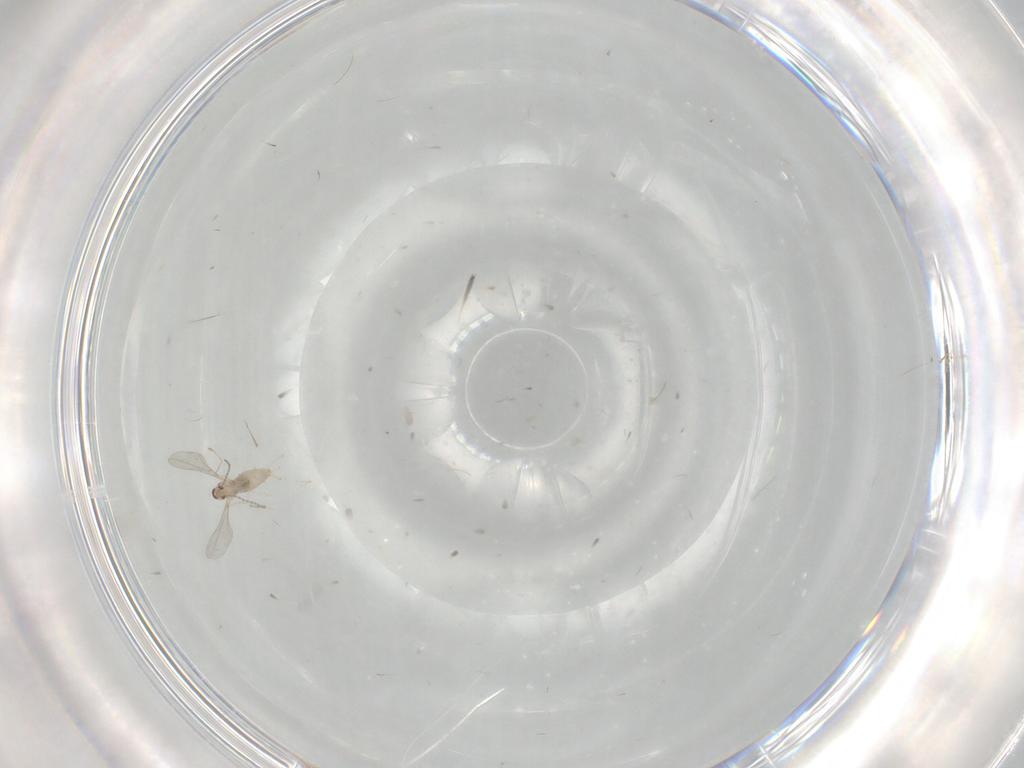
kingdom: Animalia
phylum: Arthropoda
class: Insecta
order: Diptera
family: Cecidomyiidae
